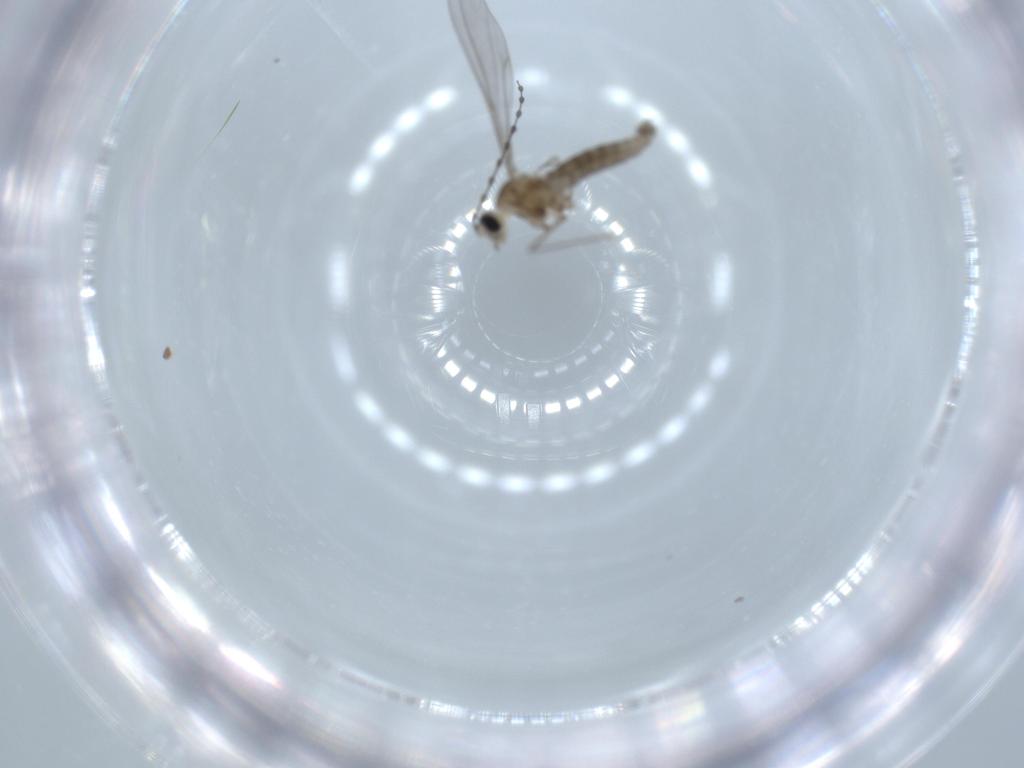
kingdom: Animalia
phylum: Arthropoda
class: Insecta
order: Diptera
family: Cecidomyiidae
